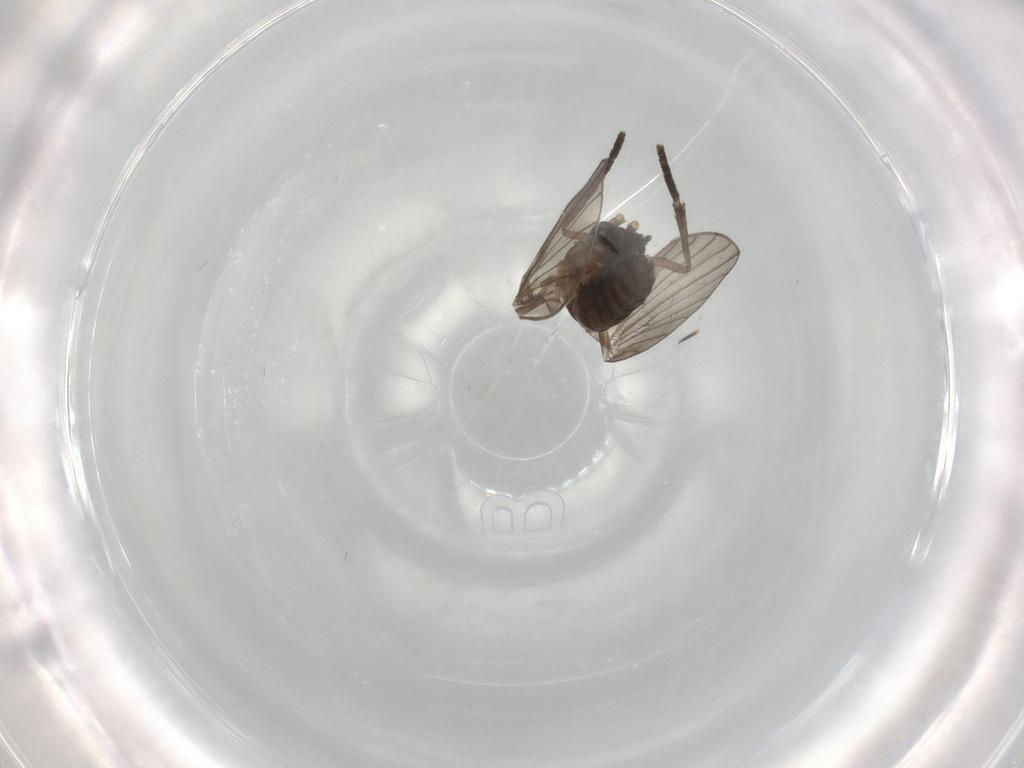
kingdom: Animalia
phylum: Arthropoda
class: Insecta
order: Diptera
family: Psychodidae
